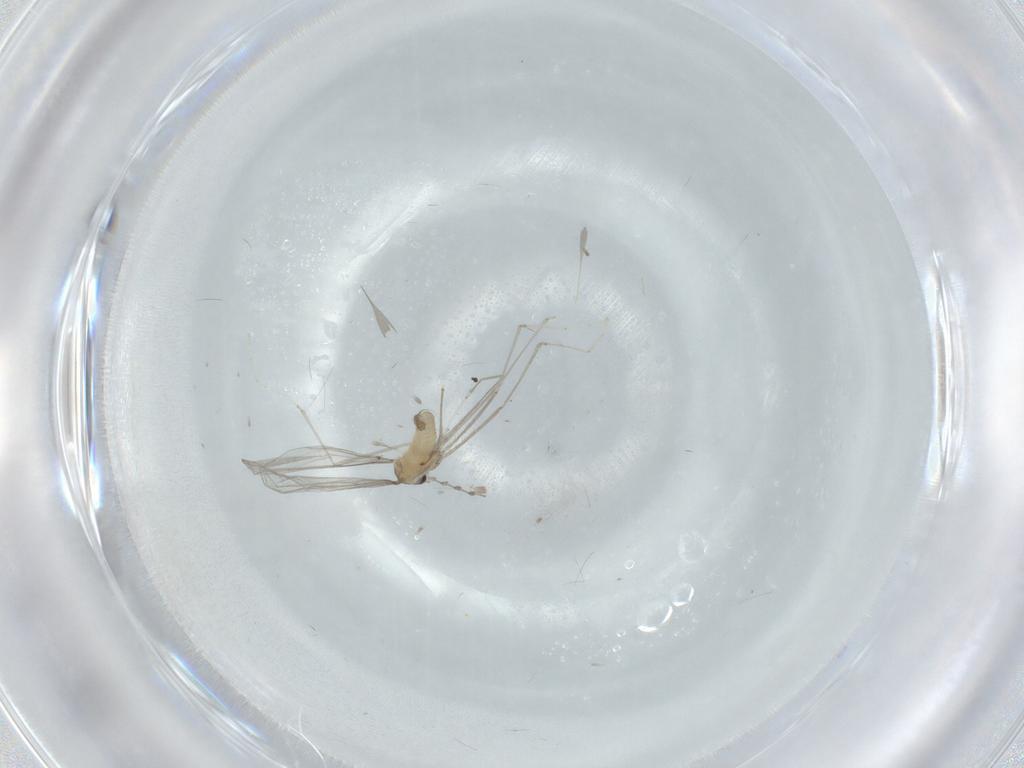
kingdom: Animalia
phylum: Arthropoda
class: Insecta
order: Diptera
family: Cecidomyiidae
